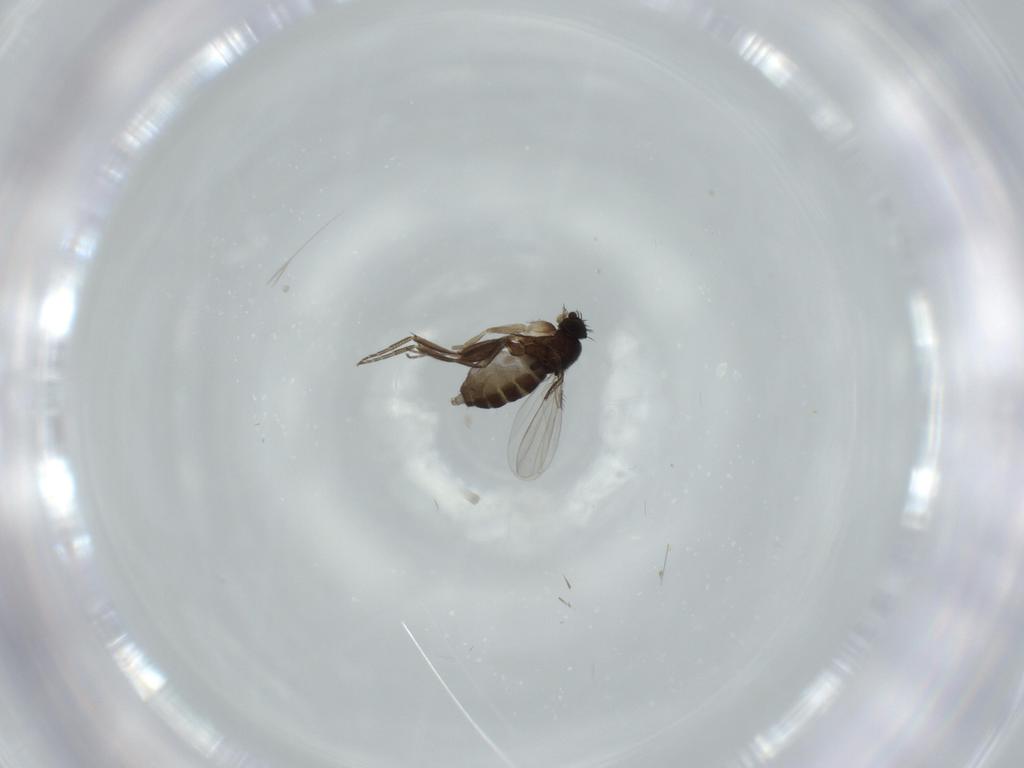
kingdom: Animalia
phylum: Arthropoda
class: Insecta
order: Diptera
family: Phoridae
